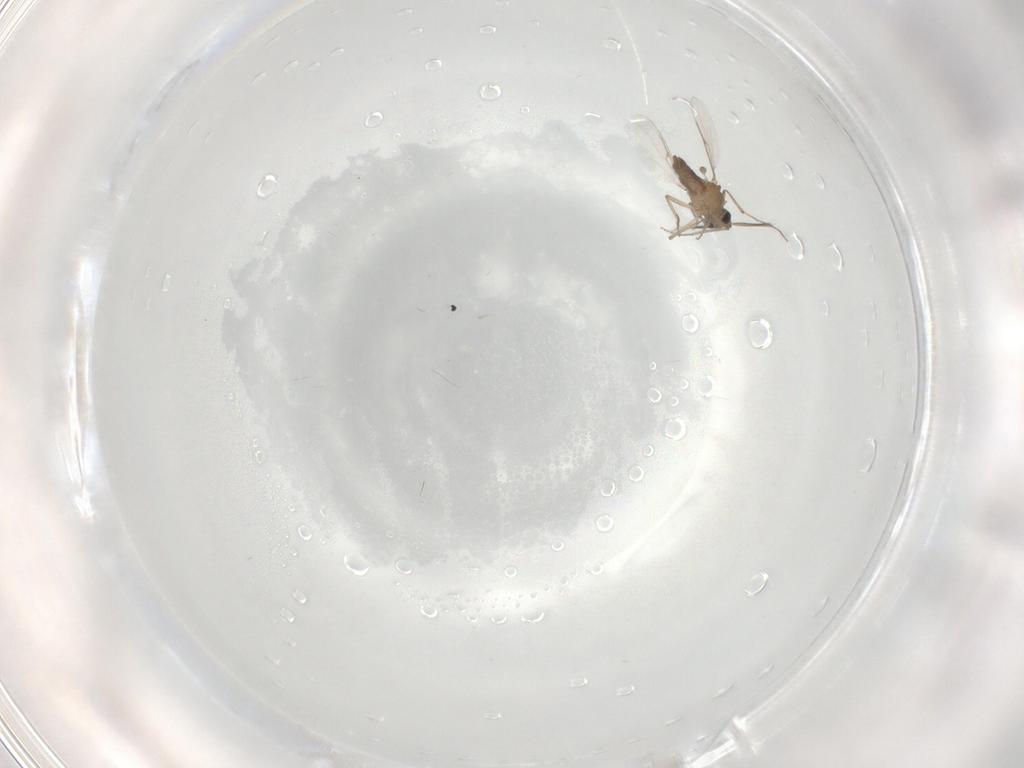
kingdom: Animalia
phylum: Arthropoda
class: Insecta
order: Diptera
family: Ceratopogonidae
